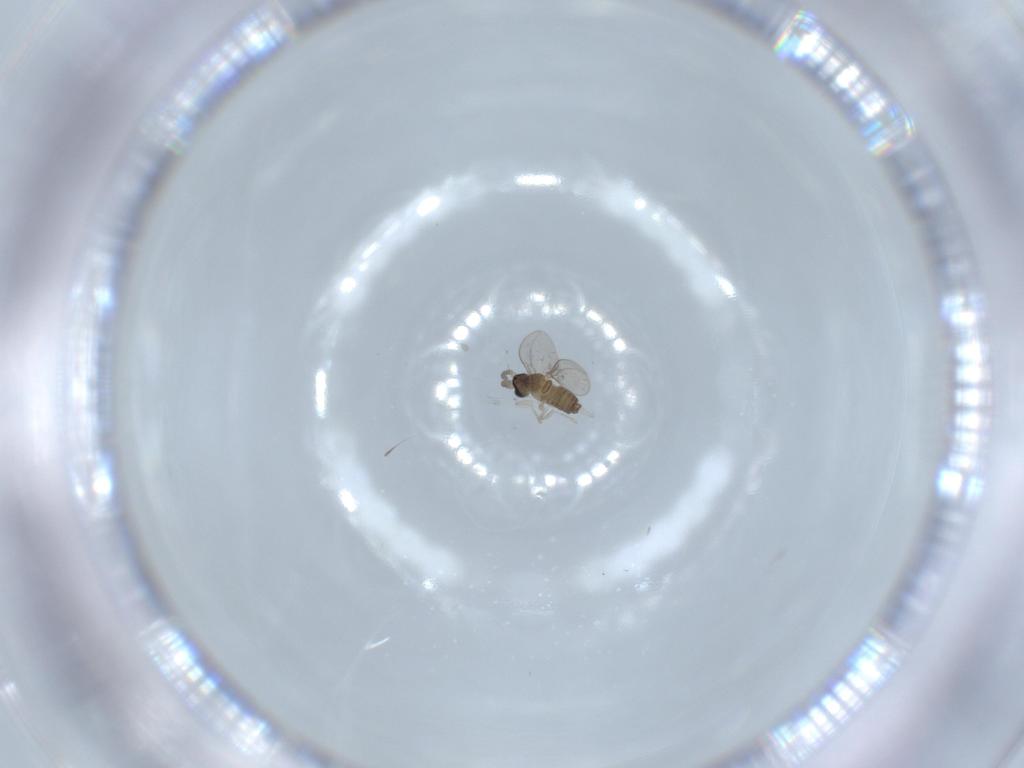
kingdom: Animalia
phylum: Arthropoda
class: Insecta
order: Diptera
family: Cecidomyiidae
